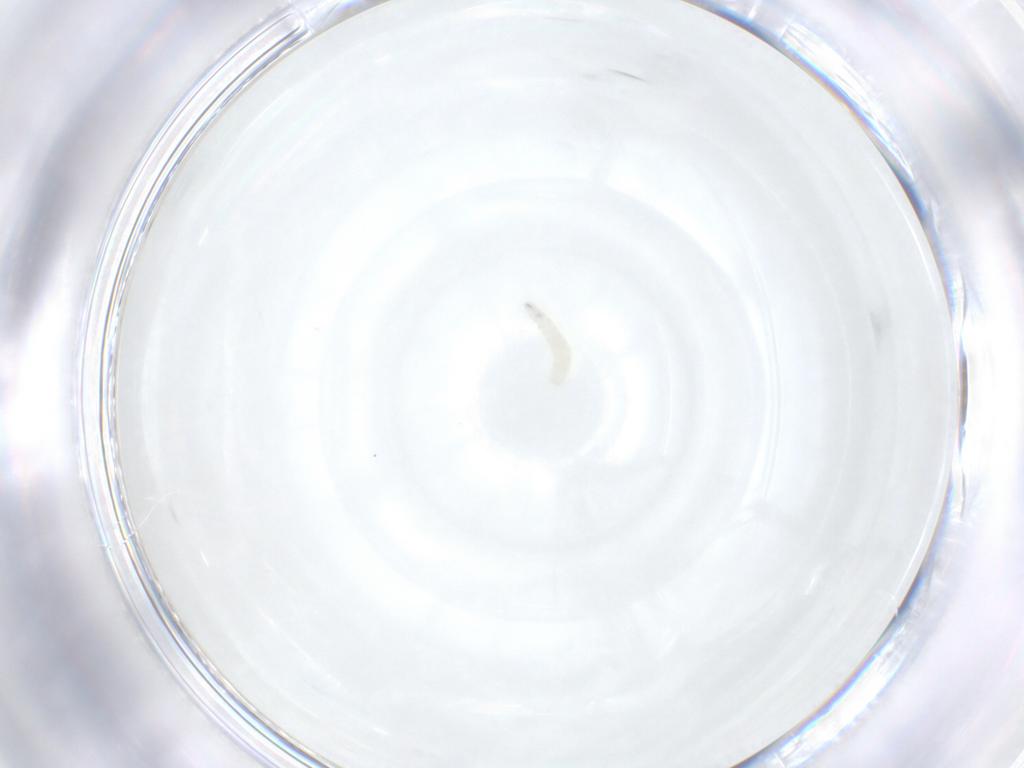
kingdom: Animalia
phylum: Arthropoda
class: Insecta
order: Diptera
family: Sarcophagidae
